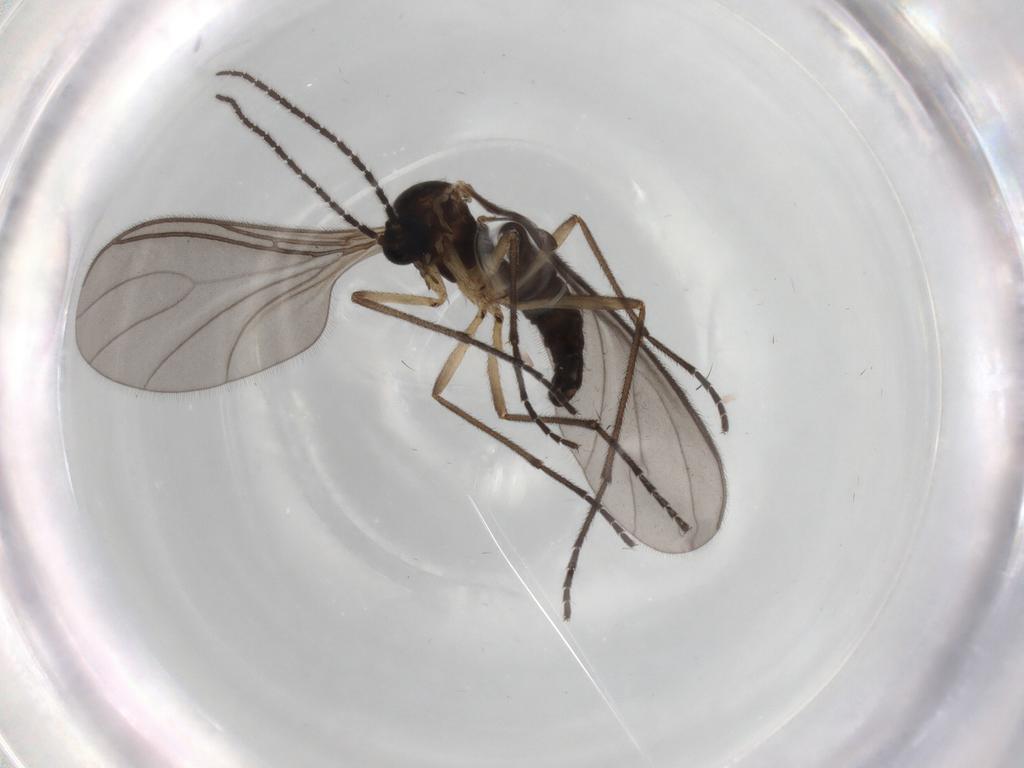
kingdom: Animalia
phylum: Arthropoda
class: Insecta
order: Diptera
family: Sciaridae
